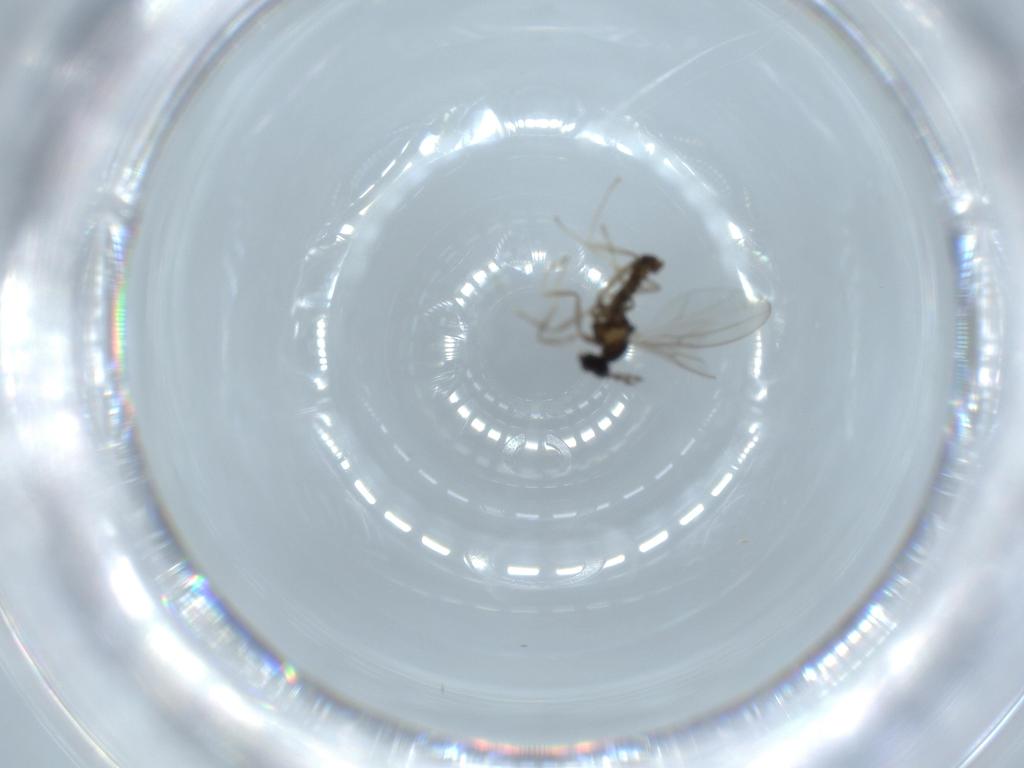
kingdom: Animalia
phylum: Arthropoda
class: Insecta
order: Diptera
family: Cecidomyiidae
